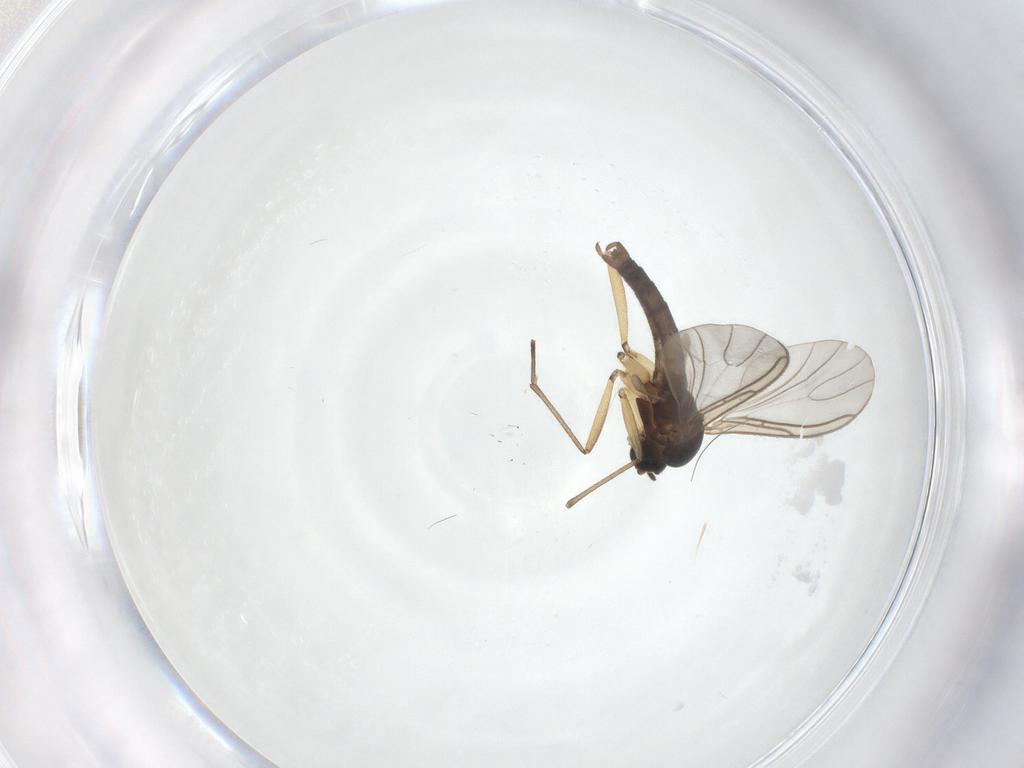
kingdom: Animalia
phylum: Arthropoda
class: Insecta
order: Diptera
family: Sciaridae
